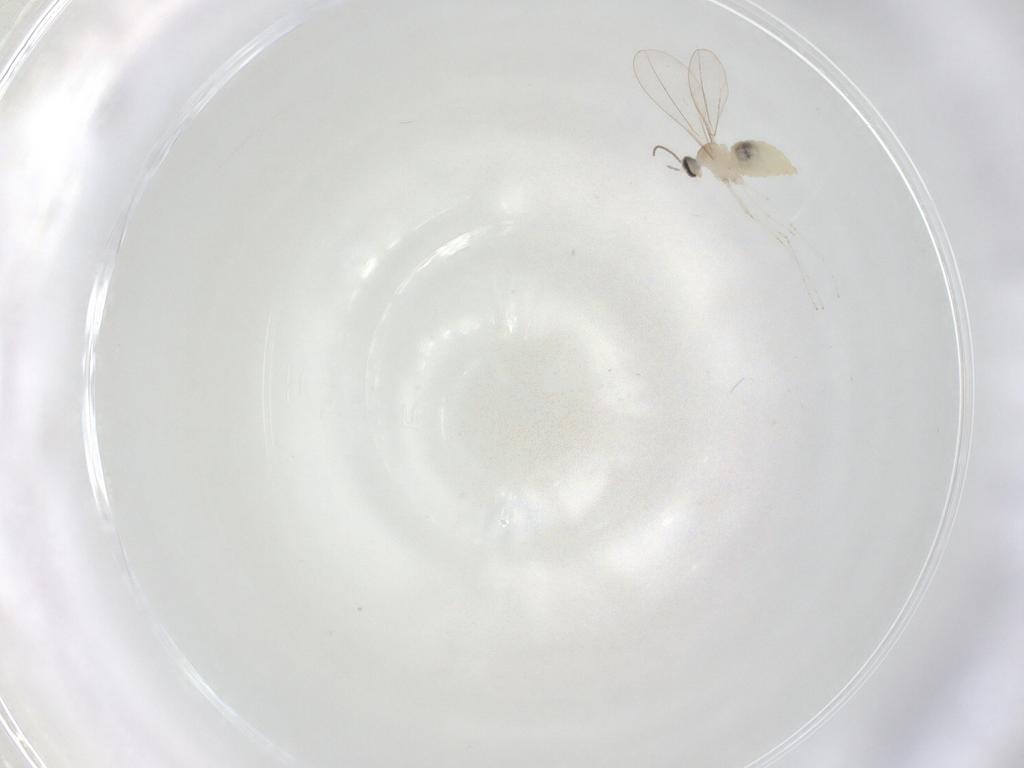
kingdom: Animalia
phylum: Arthropoda
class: Insecta
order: Diptera
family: Cecidomyiidae
